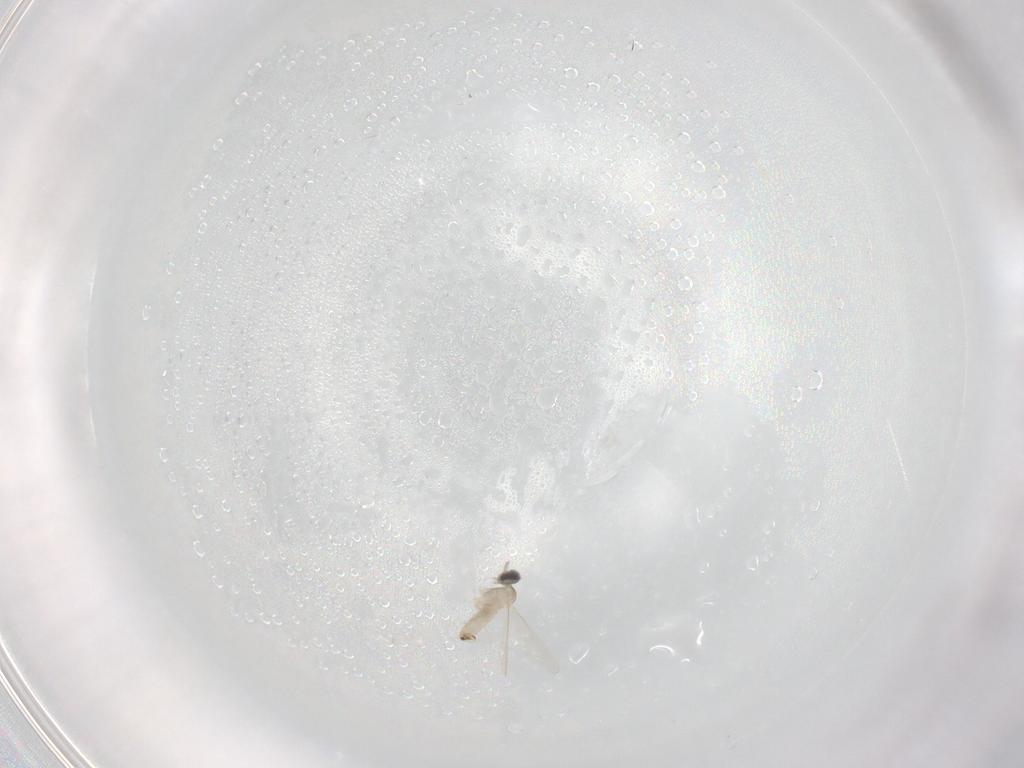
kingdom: Animalia
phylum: Arthropoda
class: Insecta
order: Diptera
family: Cecidomyiidae
